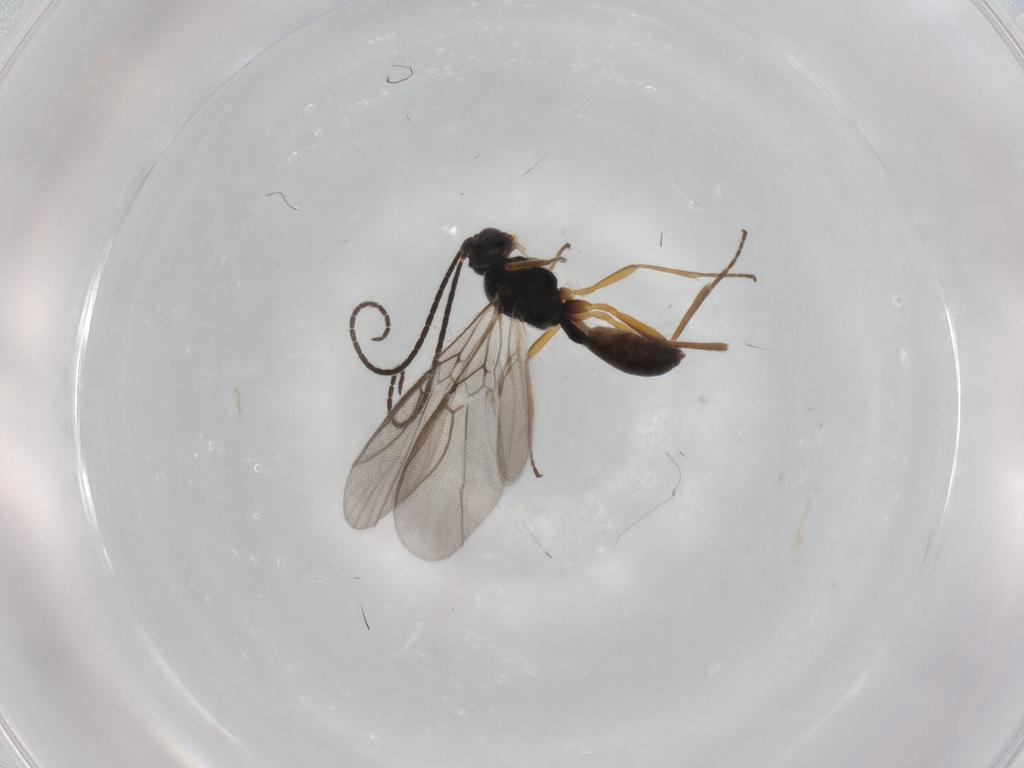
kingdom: Animalia
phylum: Arthropoda
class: Insecta
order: Hymenoptera
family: Braconidae
